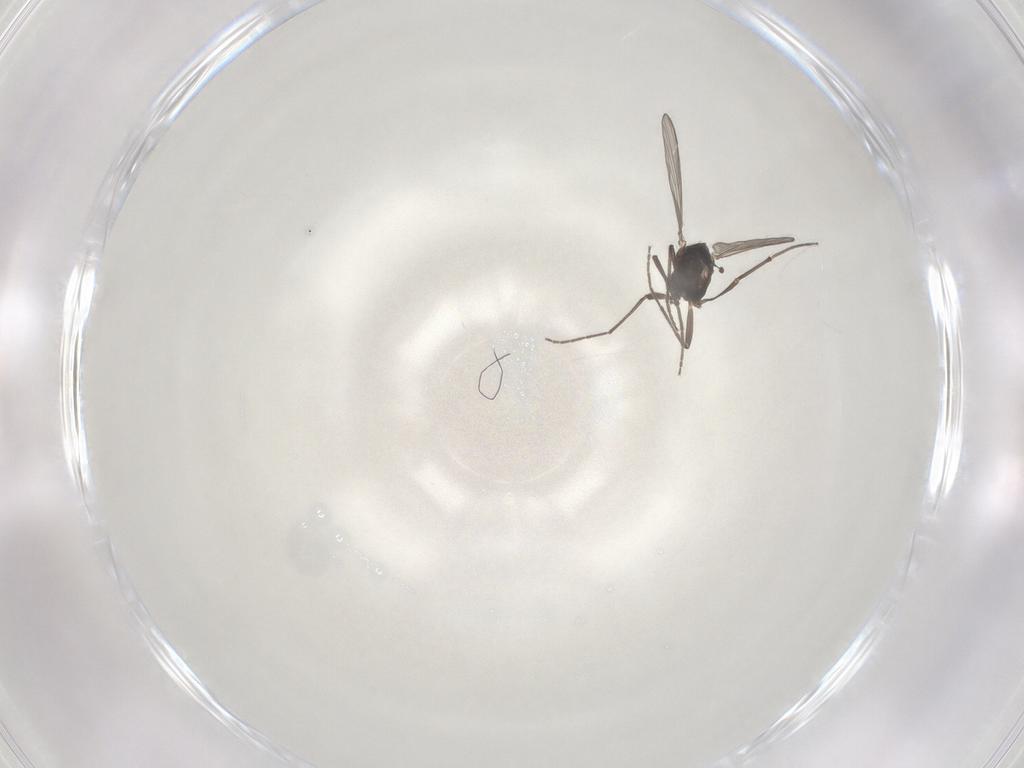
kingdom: Animalia
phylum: Arthropoda
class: Insecta
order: Diptera
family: Chironomidae
